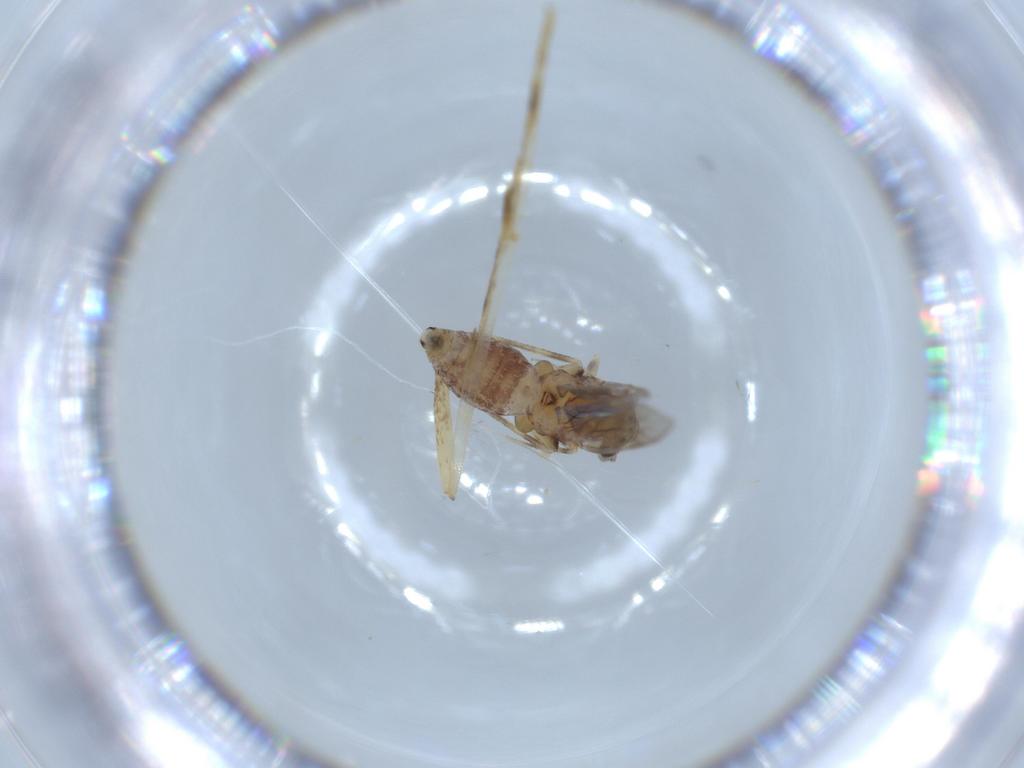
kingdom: Animalia
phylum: Arthropoda
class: Insecta
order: Psocodea
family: Lepidopsocidae
